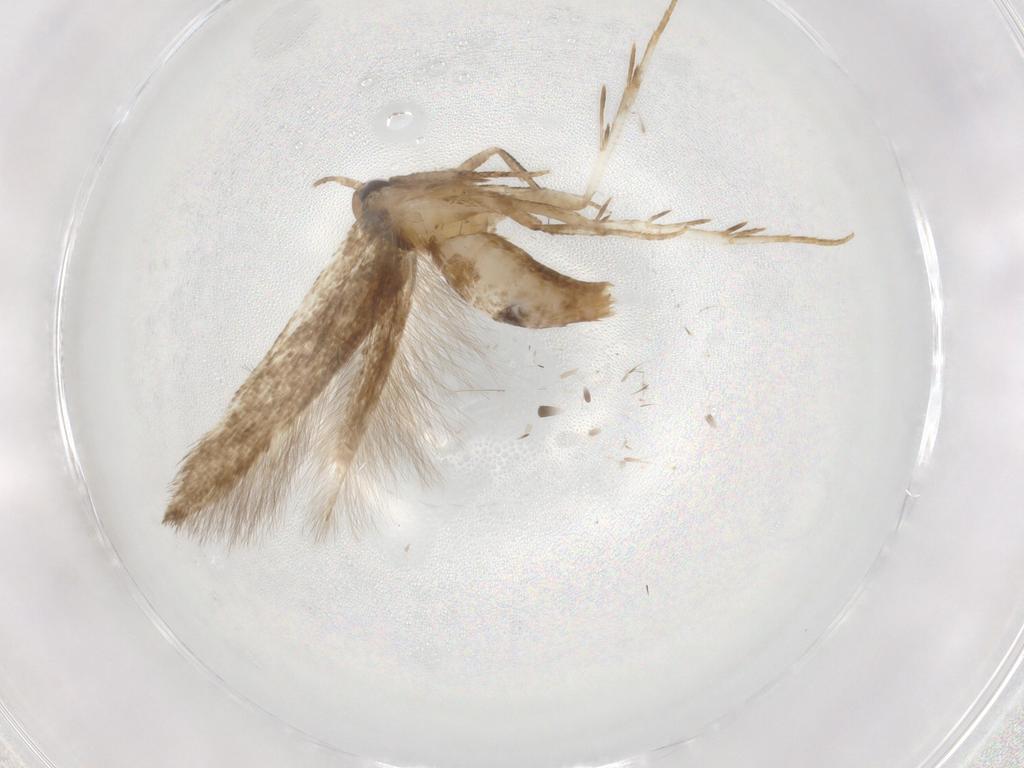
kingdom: Animalia
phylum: Arthropoda
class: Insecta
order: Lepidoptera
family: Cosmopterigidae
